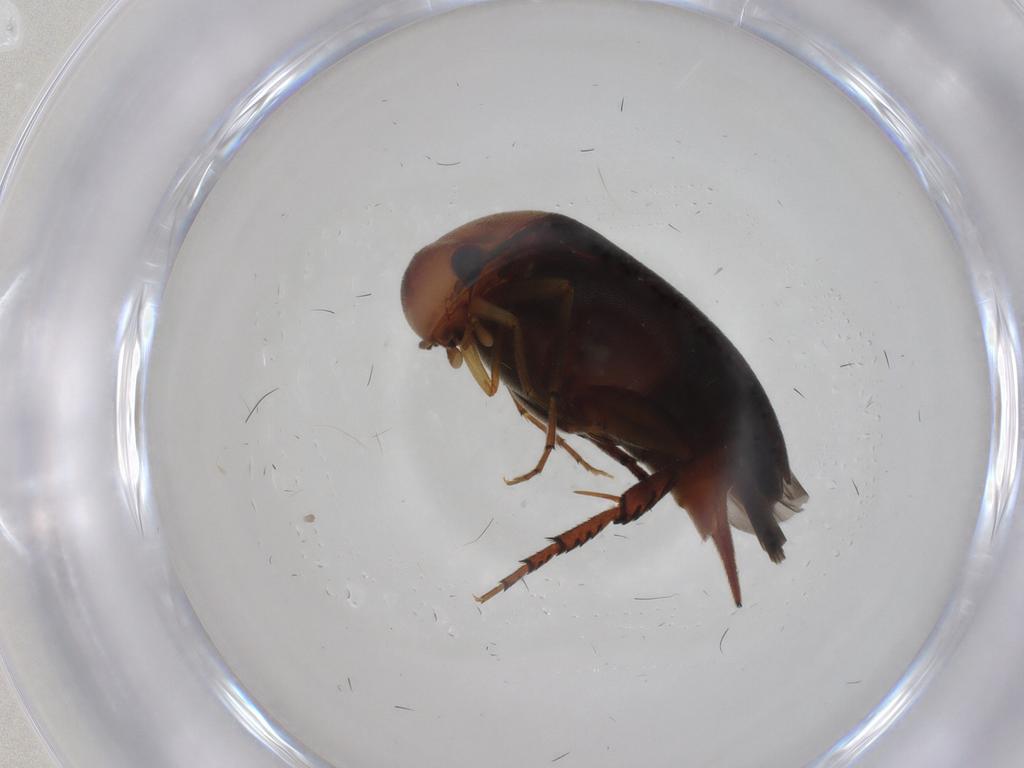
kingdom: Animalia
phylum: Arthropoda
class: Insecta
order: Coleoptera
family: Mordellidae
